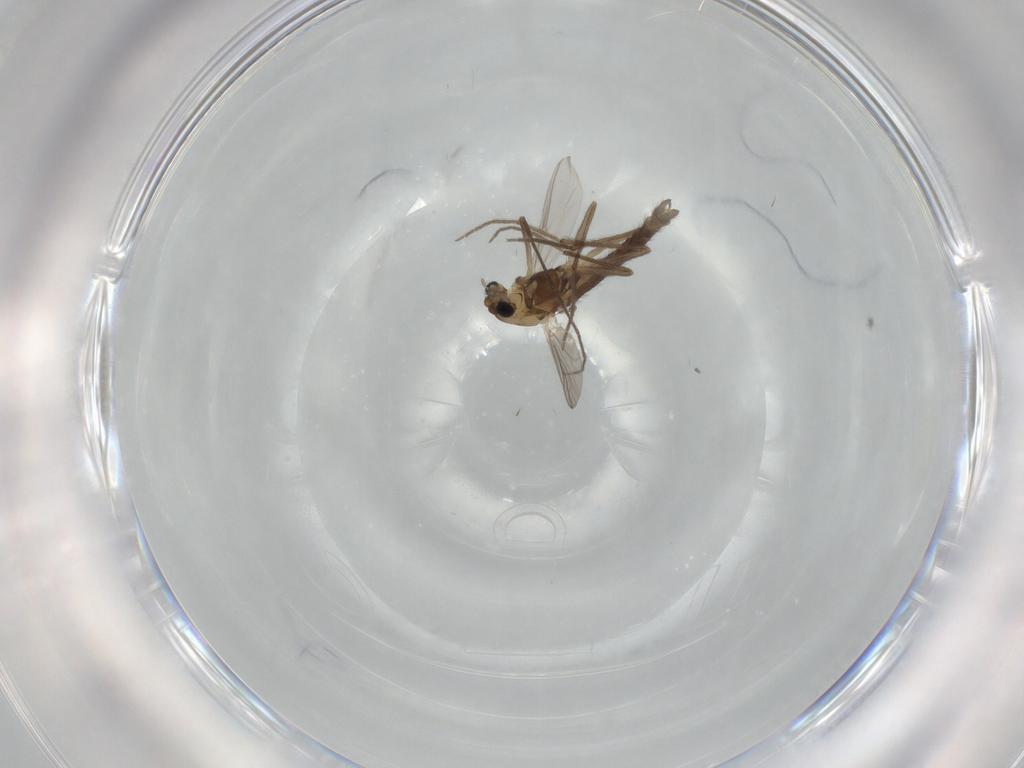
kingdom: Animalia
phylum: Arthropoda
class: Insecta
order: Diptera
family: Chironomidae
